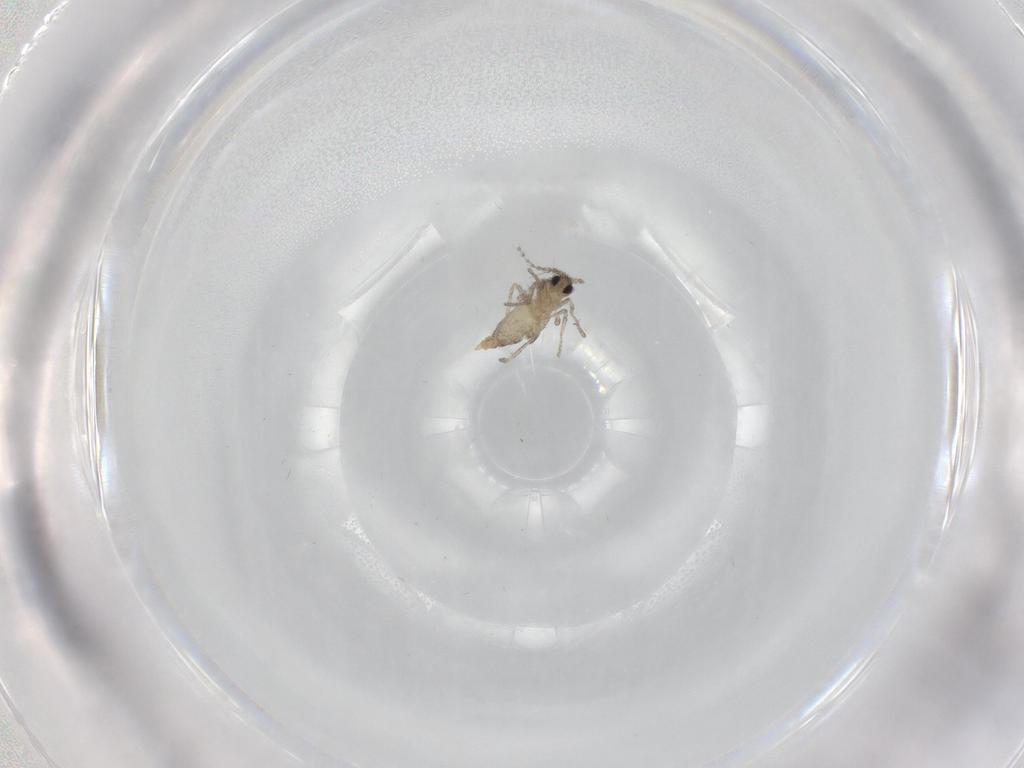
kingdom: Animalia
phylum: Arthropoda
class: Insecta
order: Diptera
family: Cecidomyiidae
